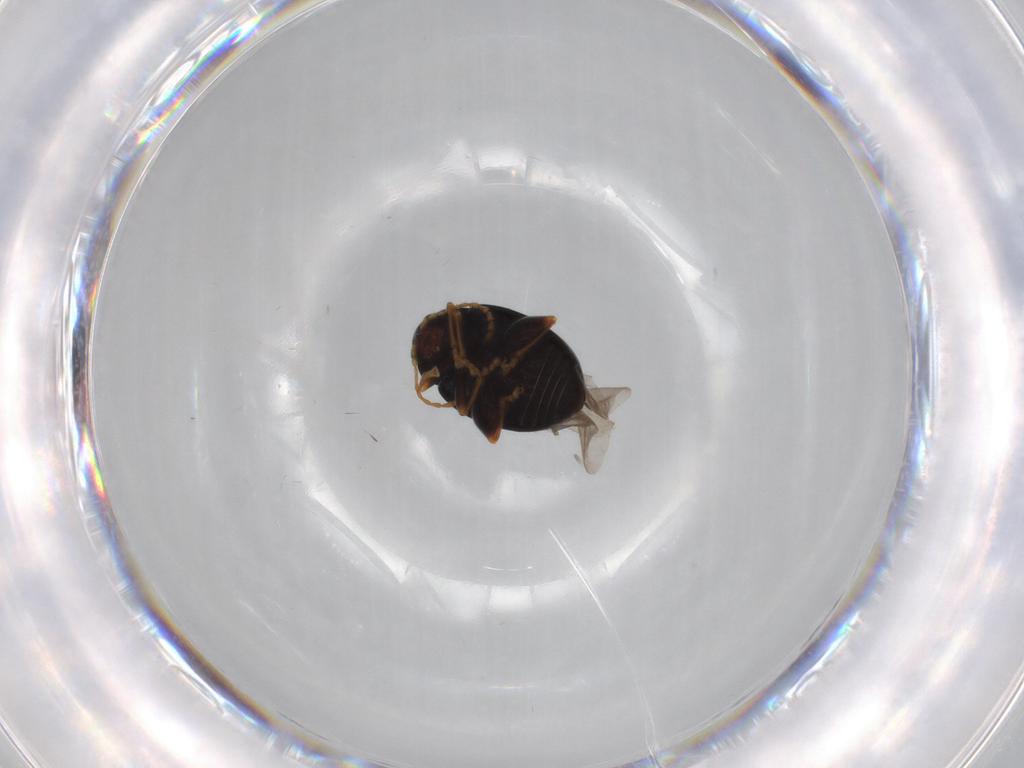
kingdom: Animalia
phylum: Arthropoda
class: Insecta
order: Coleoptera
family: Chrysomelidae
